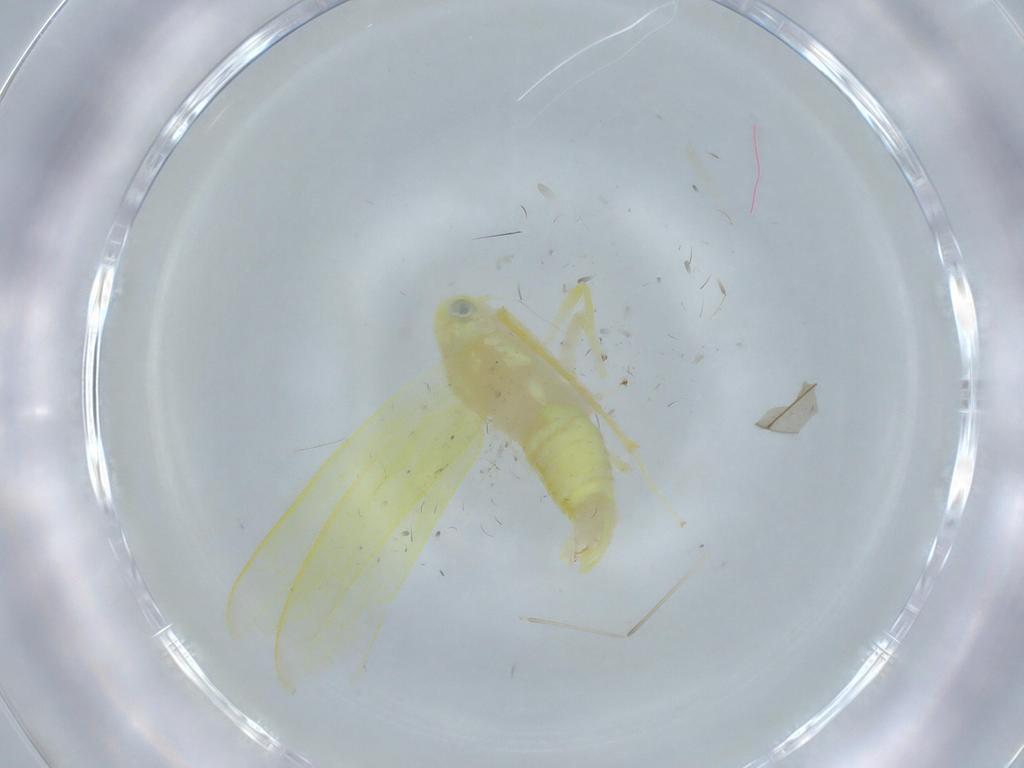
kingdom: Animalia
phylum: Arthropoda
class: Insecta
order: Hemiptera
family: Cicadellidae
